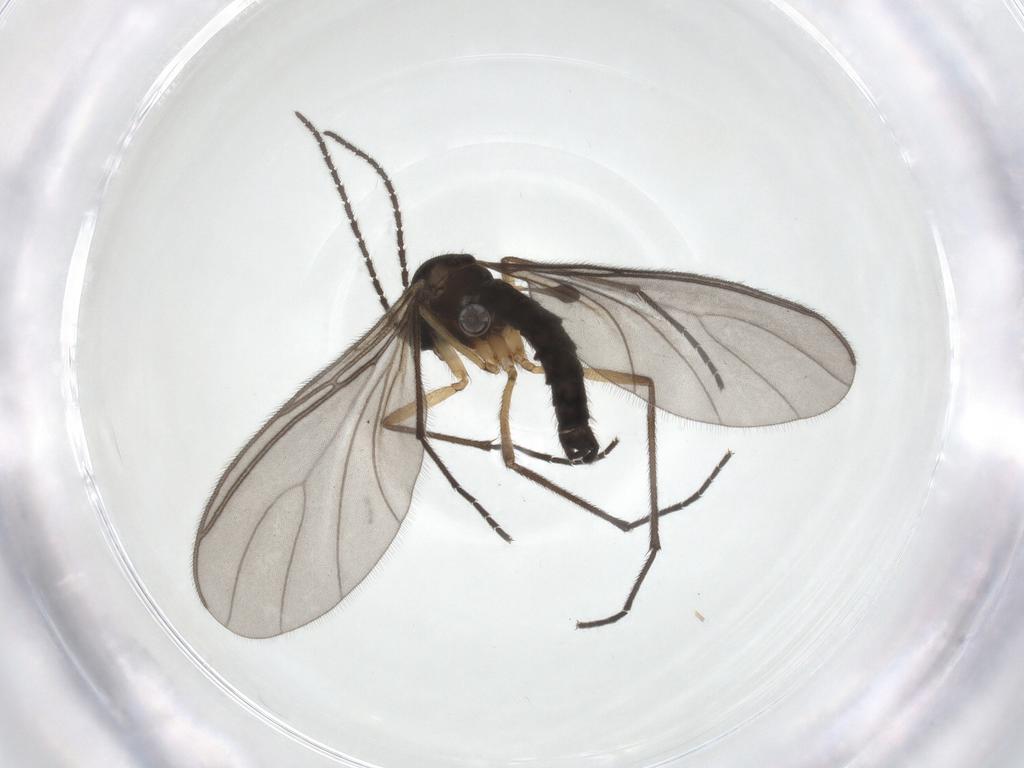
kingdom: Animalia
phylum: Arthropoda
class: Insecta
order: Diptera
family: Sciaridae
